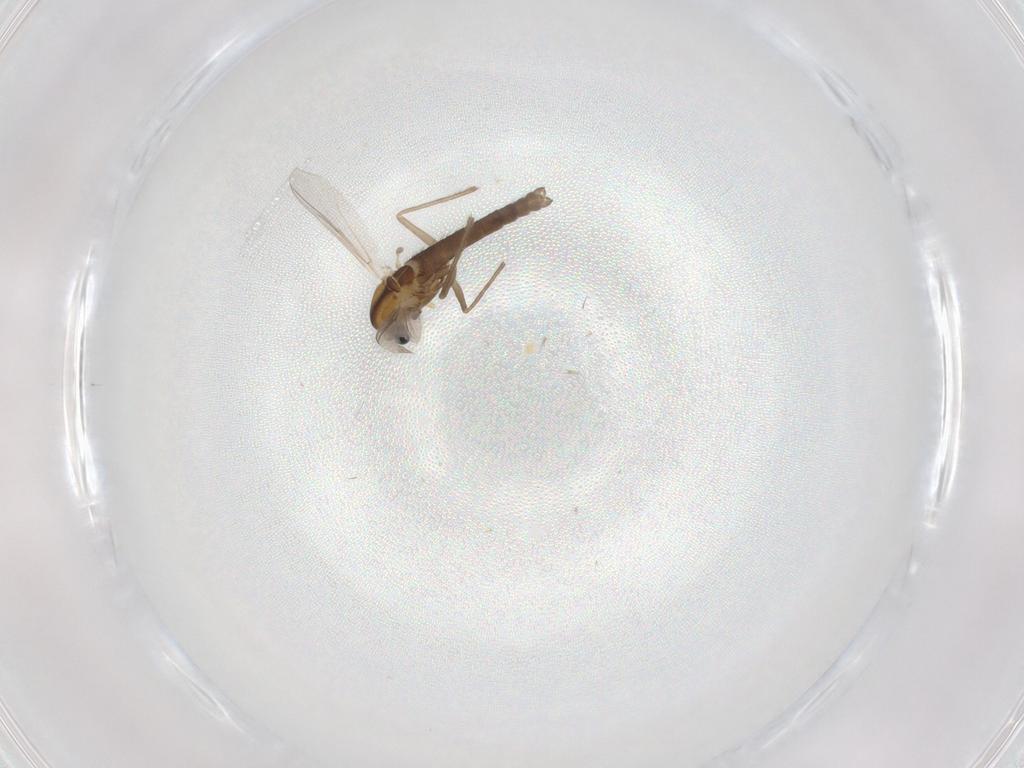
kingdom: Animalia
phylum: Arthropoda
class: Insecta
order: Diptera
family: Chironomidae
